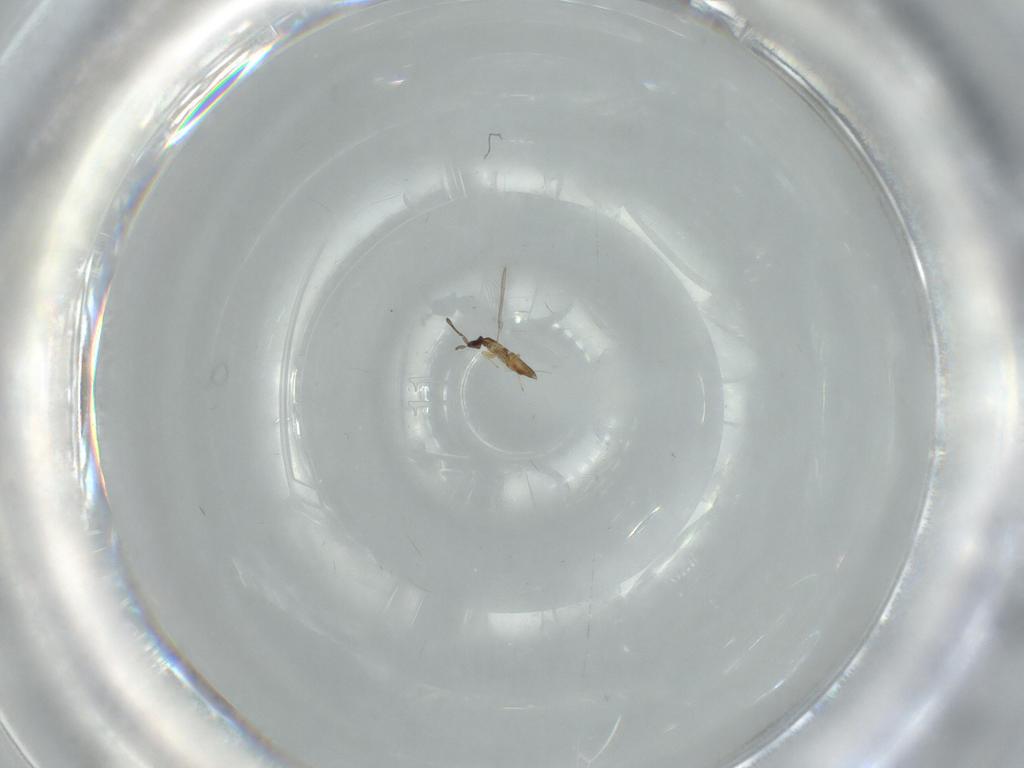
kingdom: Animalia
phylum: Arthropoda
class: Insecta
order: Hymenoptera
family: Mymaridae
